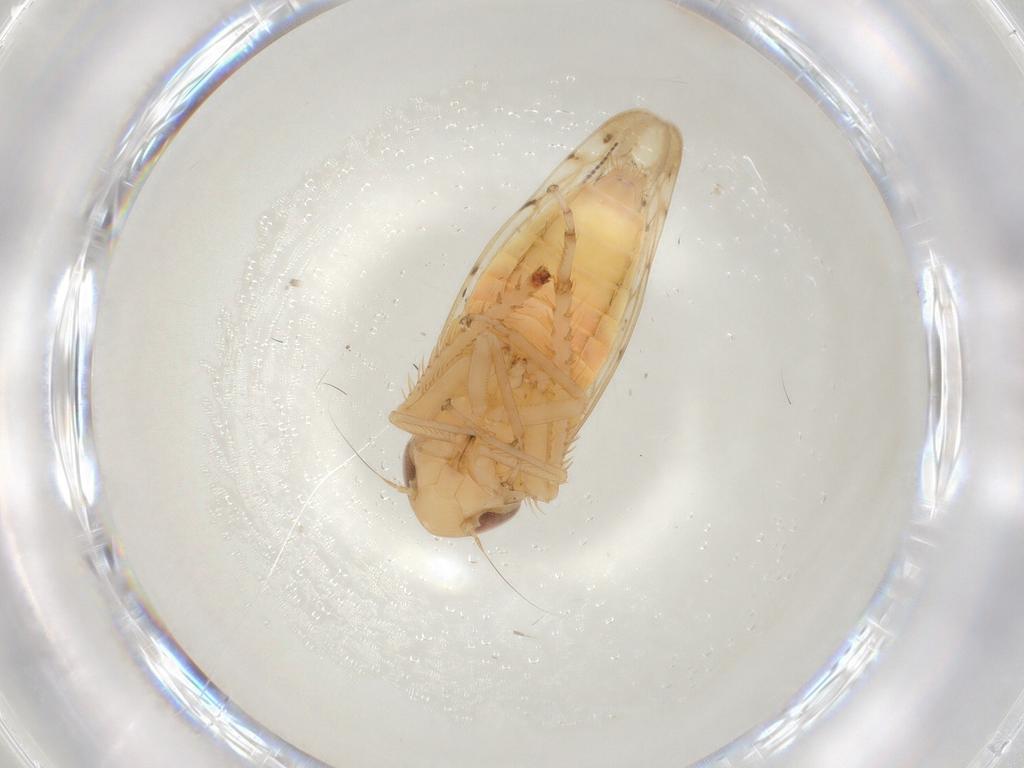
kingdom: Animalia
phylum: Arthropoda
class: Insecta
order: Hemiptera
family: Cicadellidae
